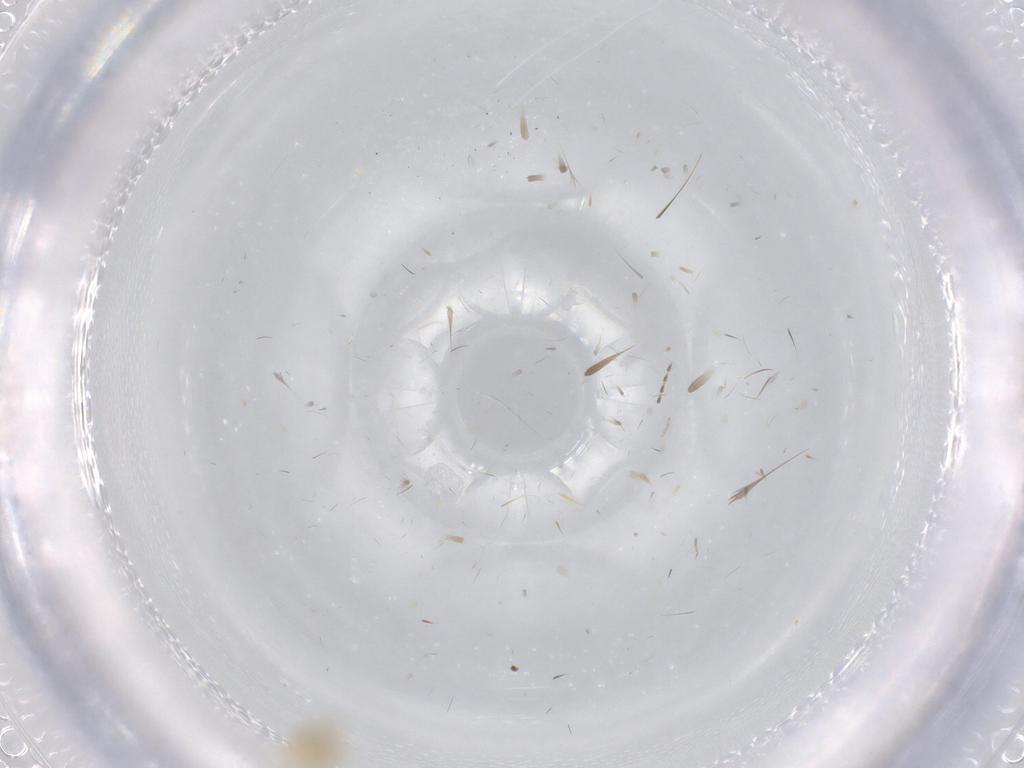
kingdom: Animalia
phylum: Arthropoda
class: Insecta
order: Hemiptera
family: Aleyrodidae
